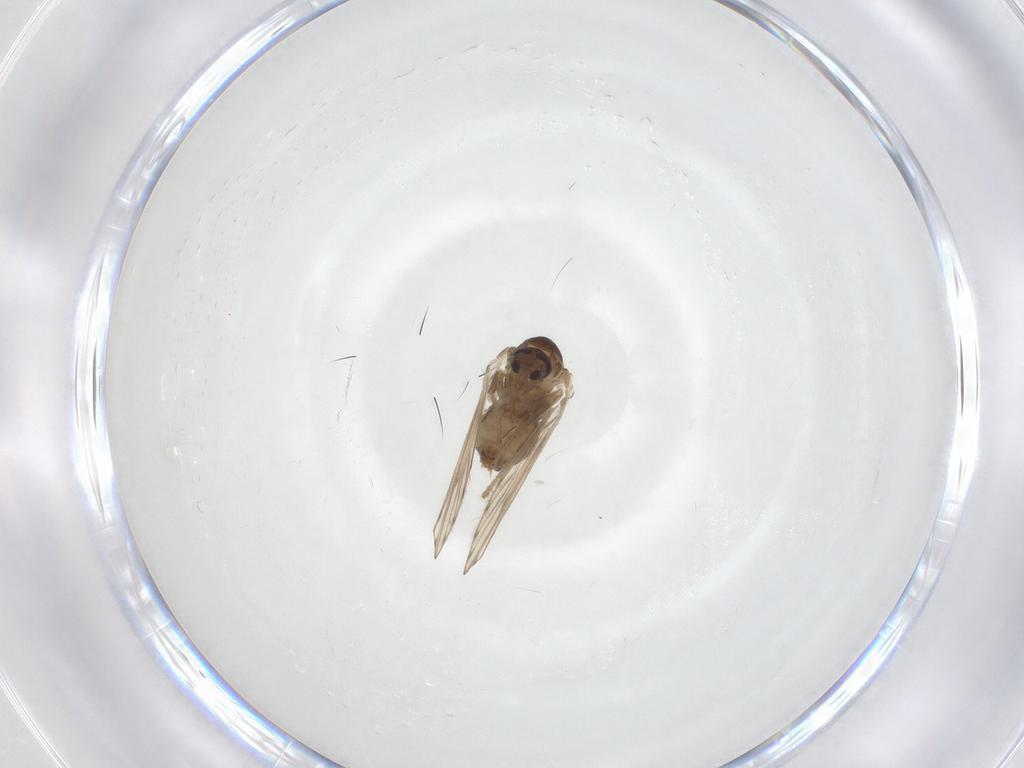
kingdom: Animalia
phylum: Arthropoda
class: Insecta
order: Diptera
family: Psychodidae
